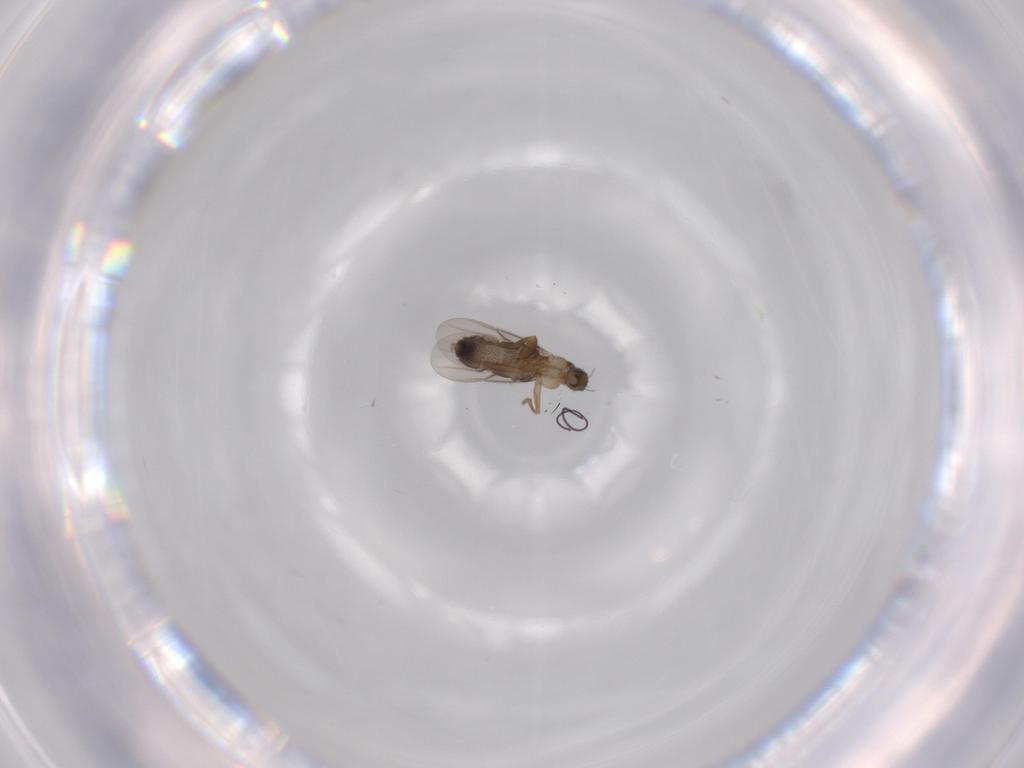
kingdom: Animalia
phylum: Arthropoda
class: Insecta
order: Diptera
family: Phoridae
